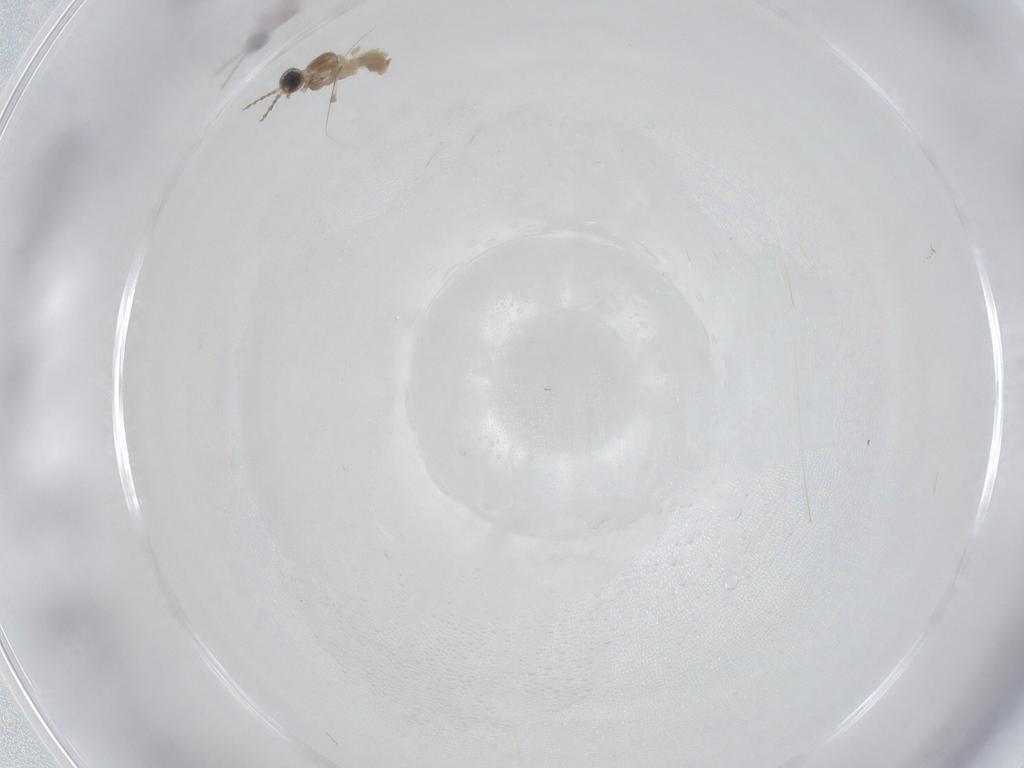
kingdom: Animalia
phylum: Arthropoda
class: Insecta
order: Diptera
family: Cecidomyiidae
